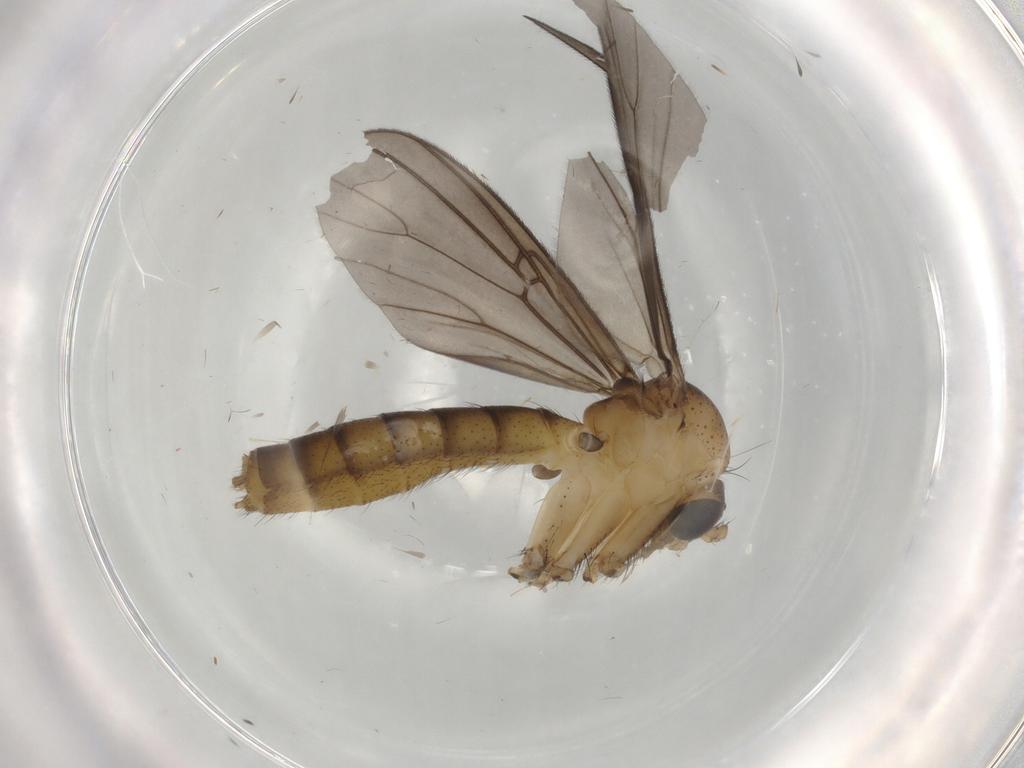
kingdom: Animalia
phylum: Arthropoda
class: Insecta
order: Diptera
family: Mycetophilidae
